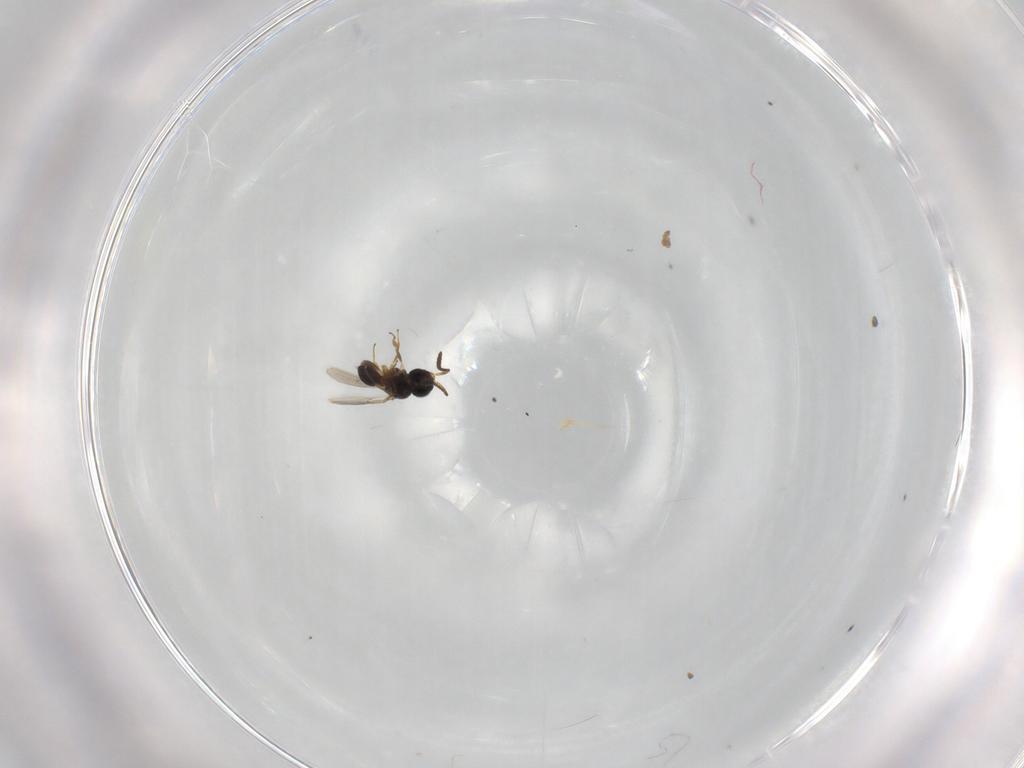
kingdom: Animalia
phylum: Arthropoda
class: Insecta
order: Hymenoptera
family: Scelionidae
